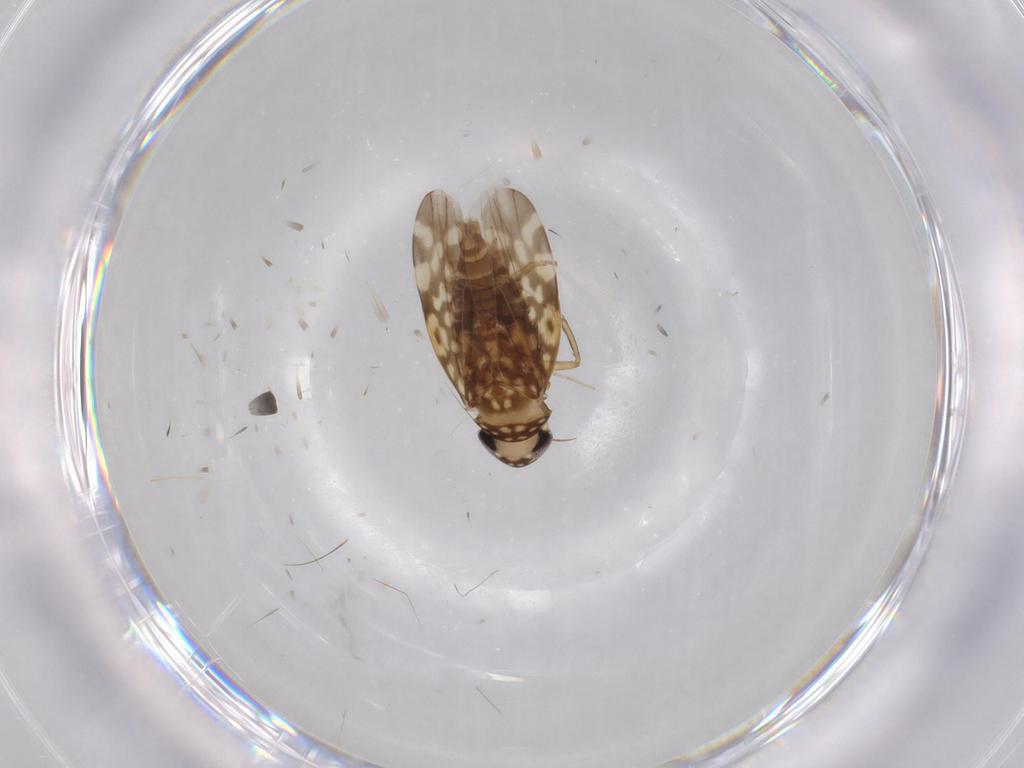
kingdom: Animalia
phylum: Arthropoda
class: Insecta
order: Hemiptera
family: Cicadellidae
